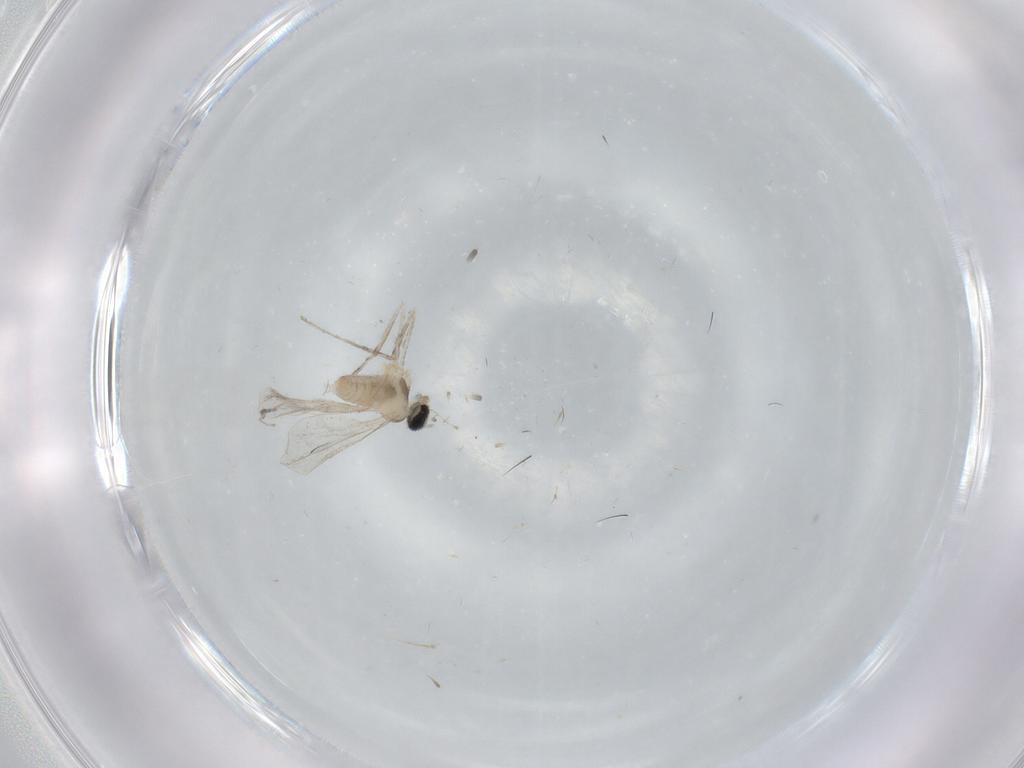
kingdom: Animalia
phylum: Arthropoda
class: Insecta
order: Diptera
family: Cecidomyiidae
